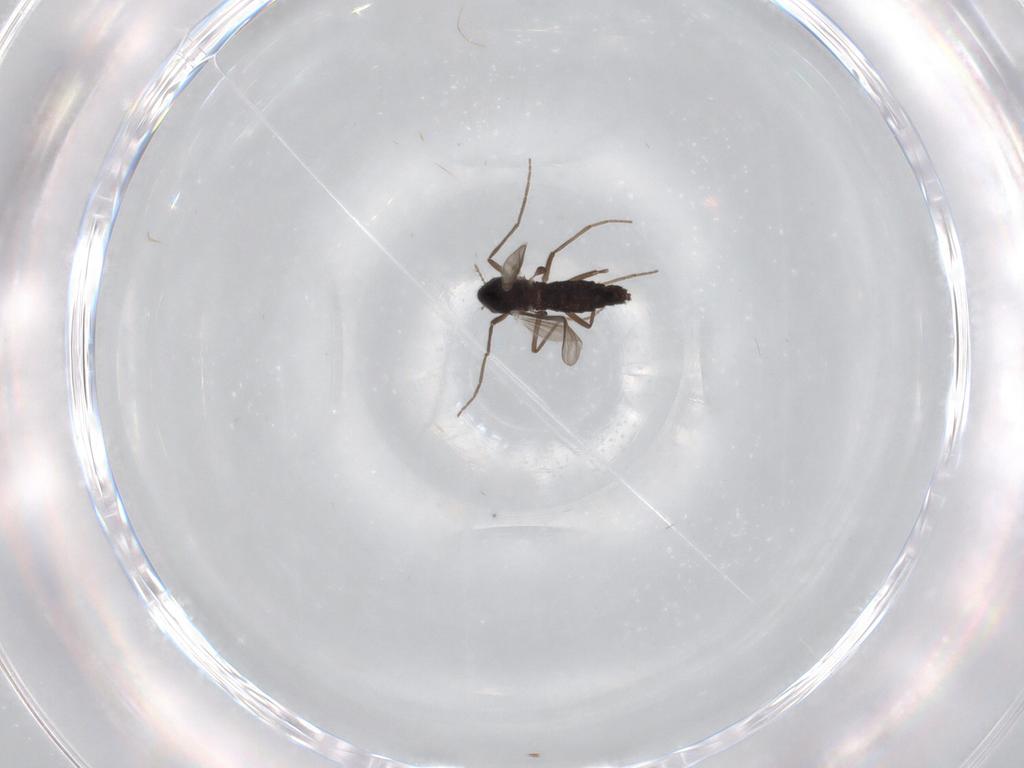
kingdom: Animalia
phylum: Arthropoda
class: Insecta
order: Diptera
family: Chironomidae
